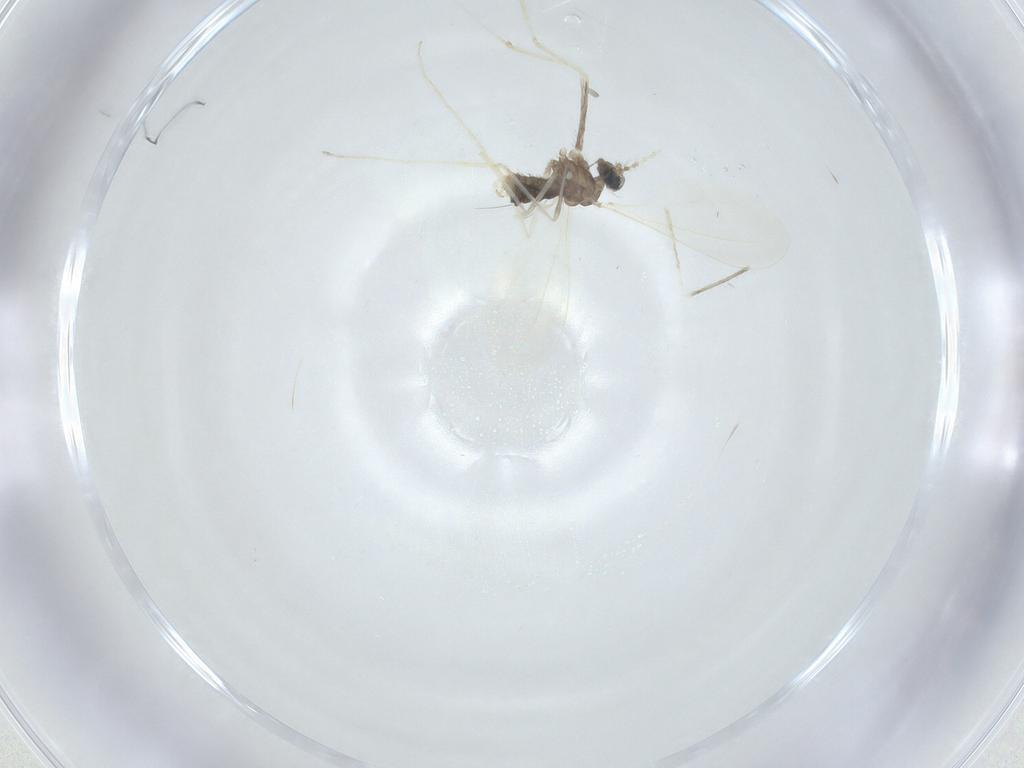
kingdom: Animalia
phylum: Arthropoda
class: Insecta
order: Diptera
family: Cecidomyiidae
